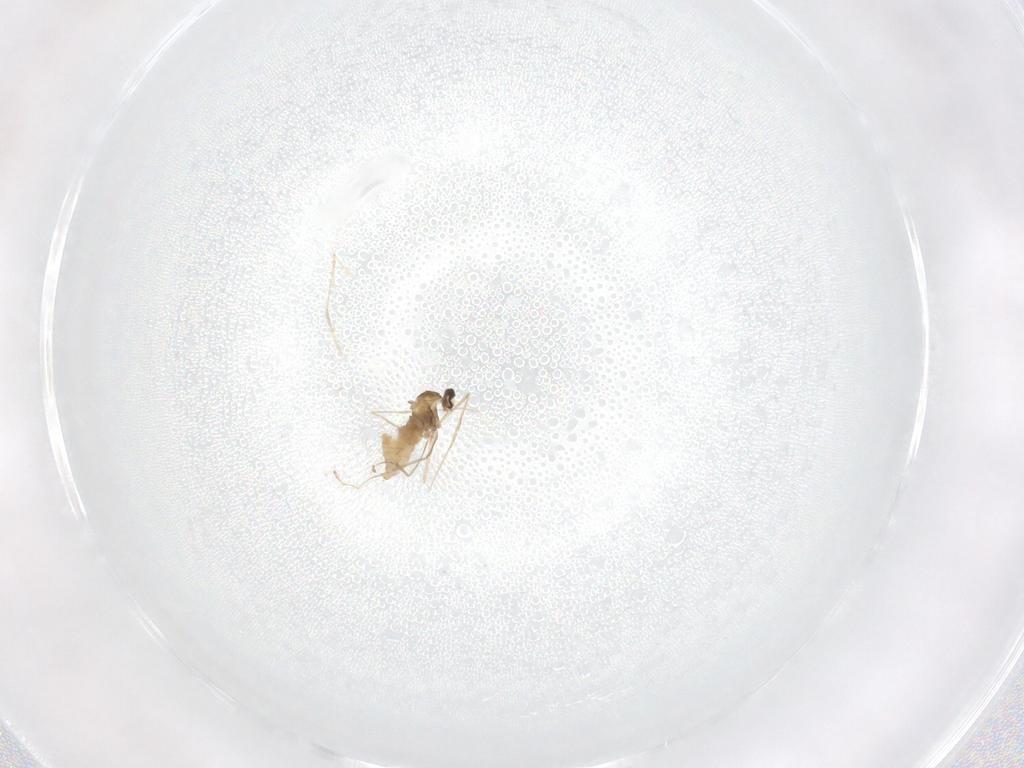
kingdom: Animalia
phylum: Arthropoda
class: Insecta
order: Diptera
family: Cecidomyiidae
